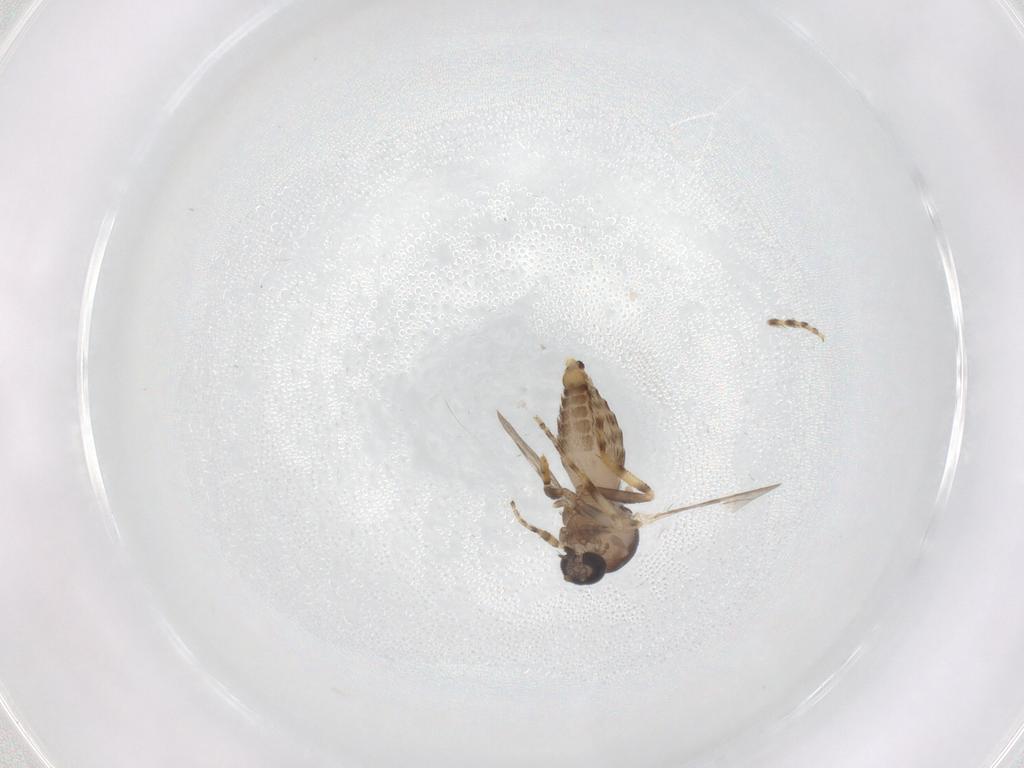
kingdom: Animalia
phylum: Arthropoda
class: Insecta
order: Diptera
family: Ceratopogonidae
